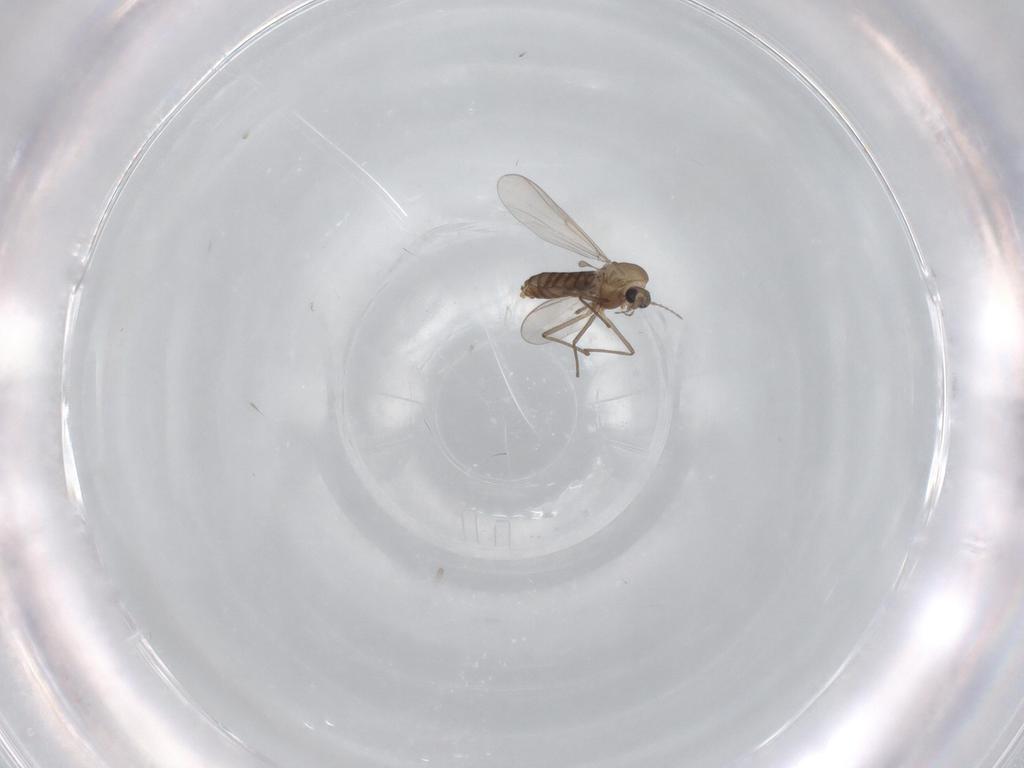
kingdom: Animalia
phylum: Arthropoda
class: Insecta
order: Diptera
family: Chironomidae
